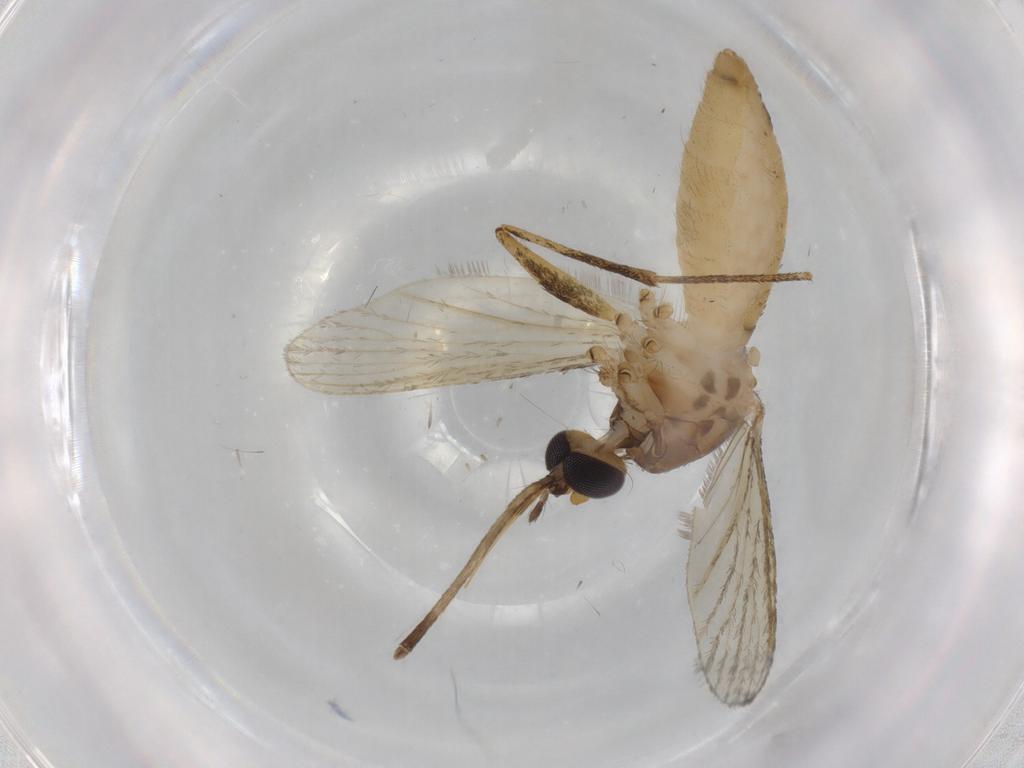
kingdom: Animalia
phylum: Arthropoda
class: Insecta
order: Diptera
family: Culicidae
